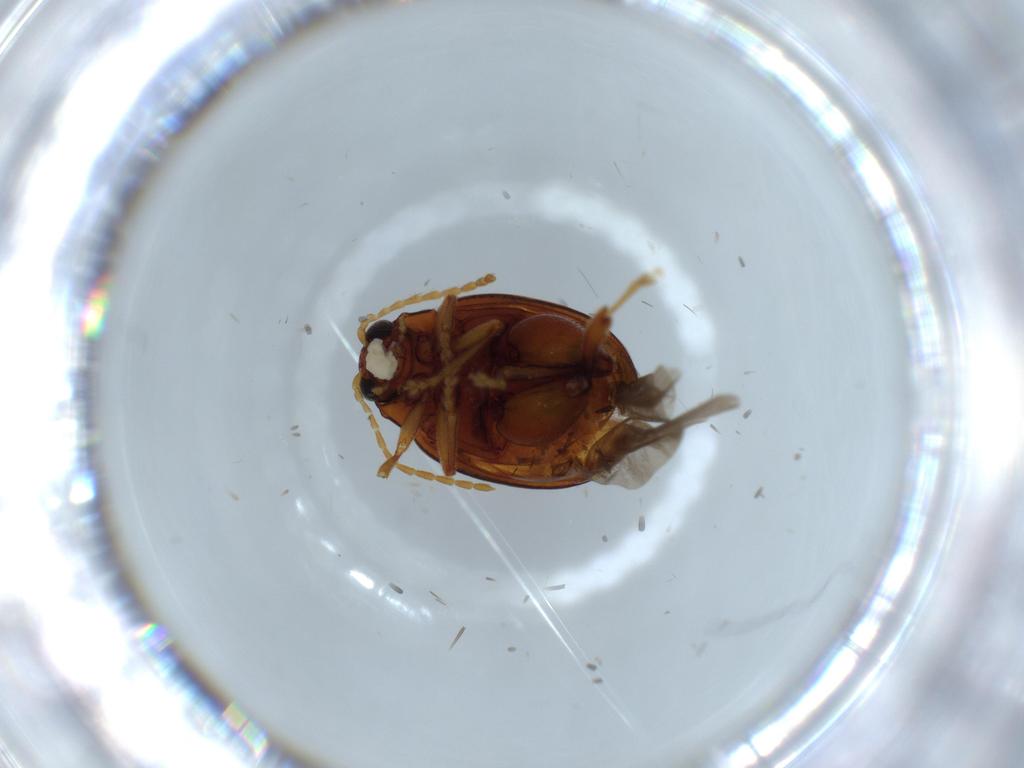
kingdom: Animalia
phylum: Arthropoda
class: Insecta
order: Coleoptera
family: Chrysomelidae
